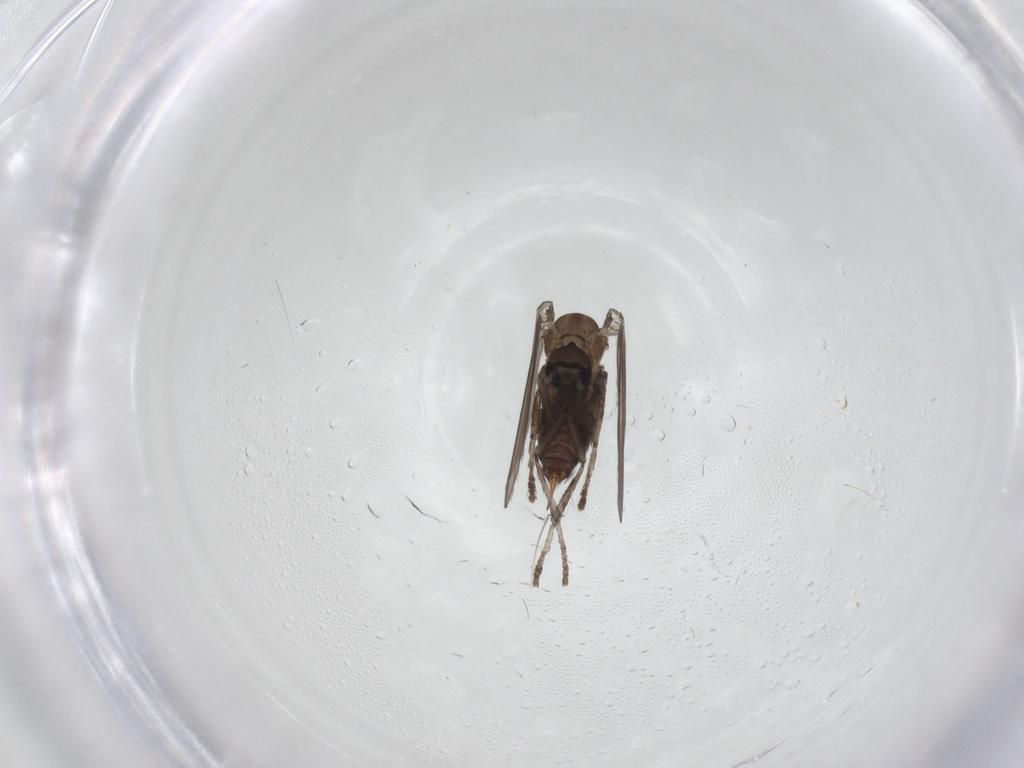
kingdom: Animalia
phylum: Arthropoda
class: Insecta
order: Diptera
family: Psychodidae
